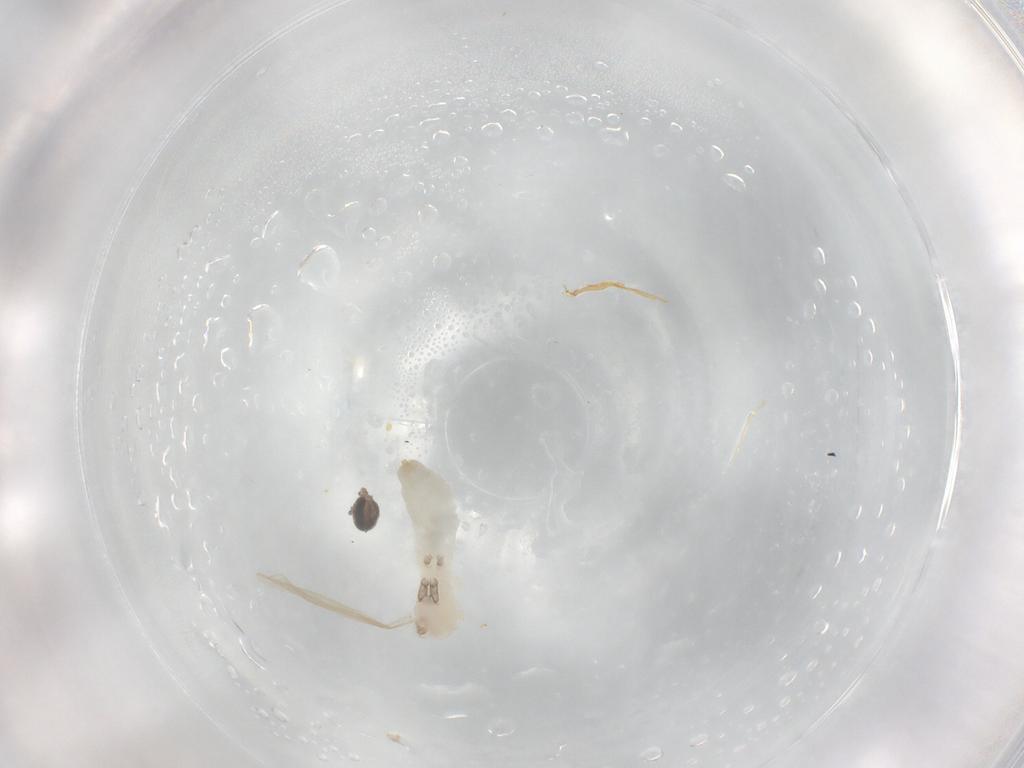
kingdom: Animalia
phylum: Arthropoda
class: Insecta
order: Diptera
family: Cecidomyiidae
